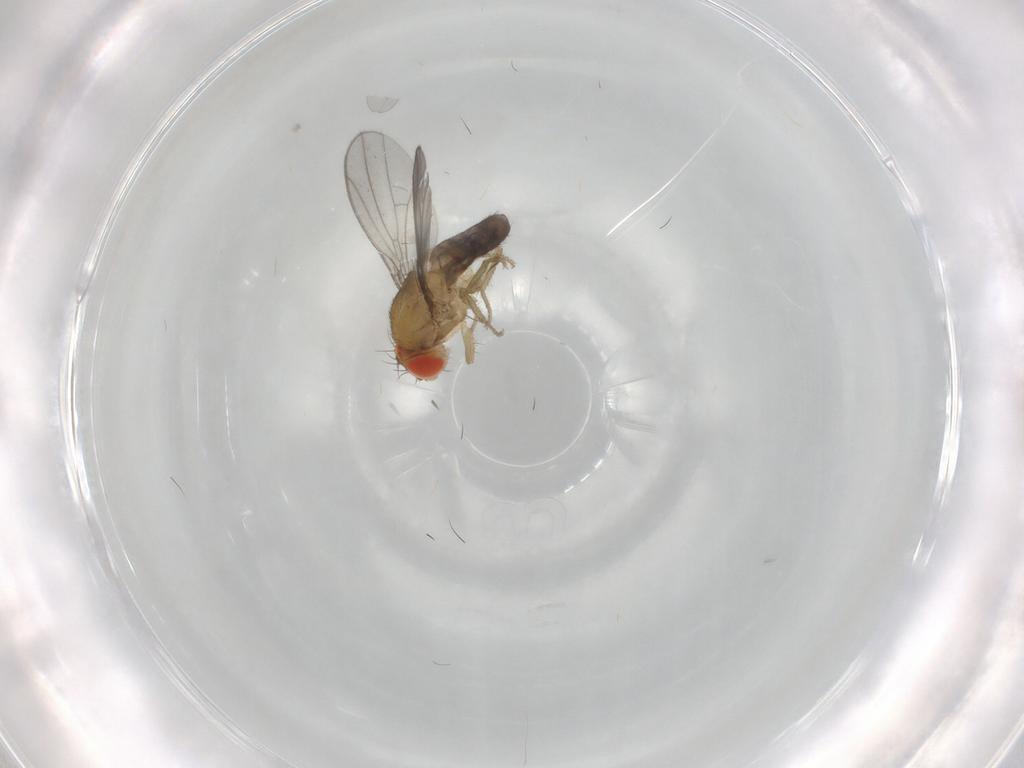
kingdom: Animalia
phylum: Arthropoda
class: Insecta
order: Diptera
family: Drosophilidae
